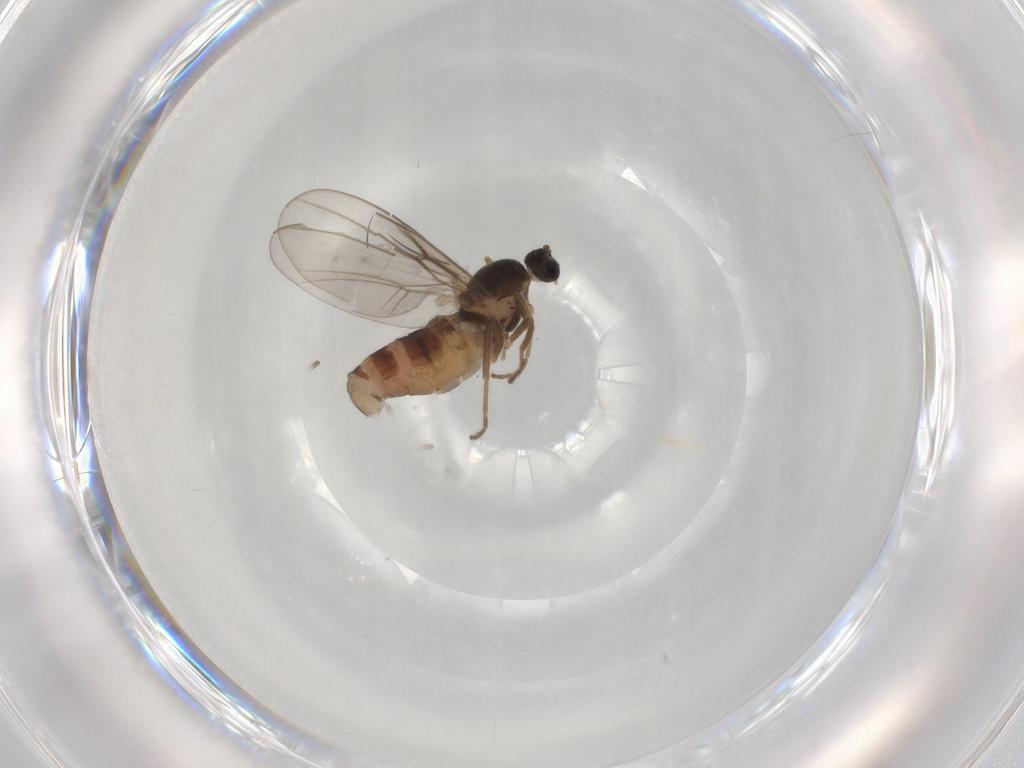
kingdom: Animalia
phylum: Arthropoda
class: Insecta
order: Diptera
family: Cecidomyiidae
